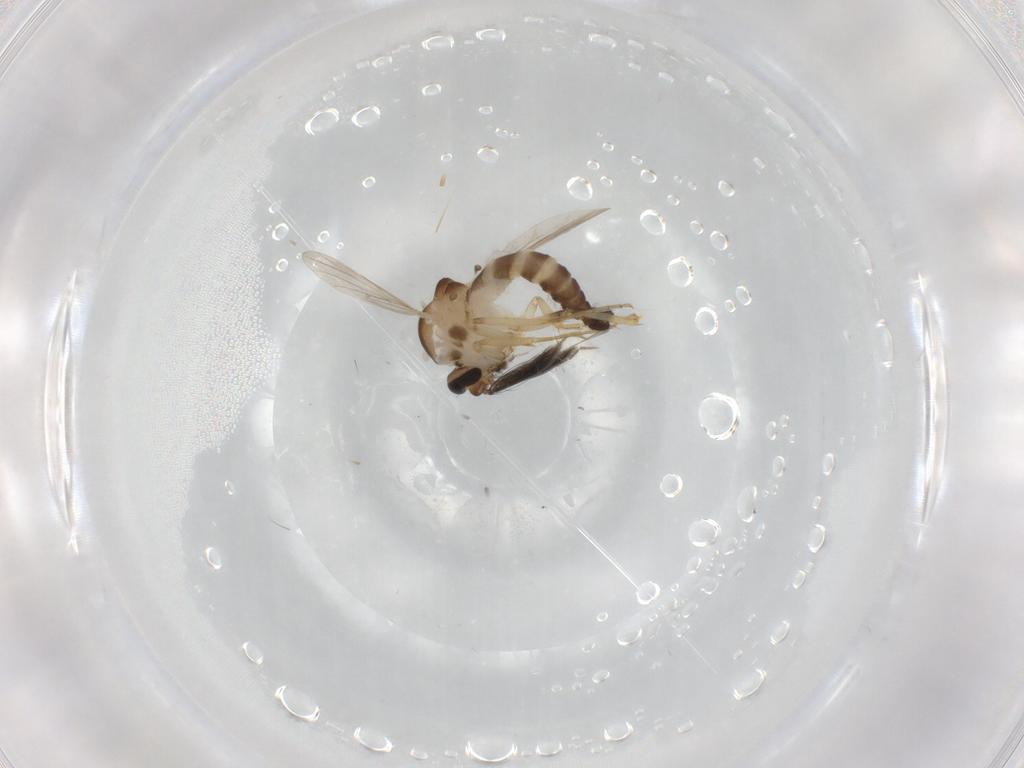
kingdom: Animalia
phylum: Arthropoda
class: Insecta
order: Diptera
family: Ceratopogonidae
